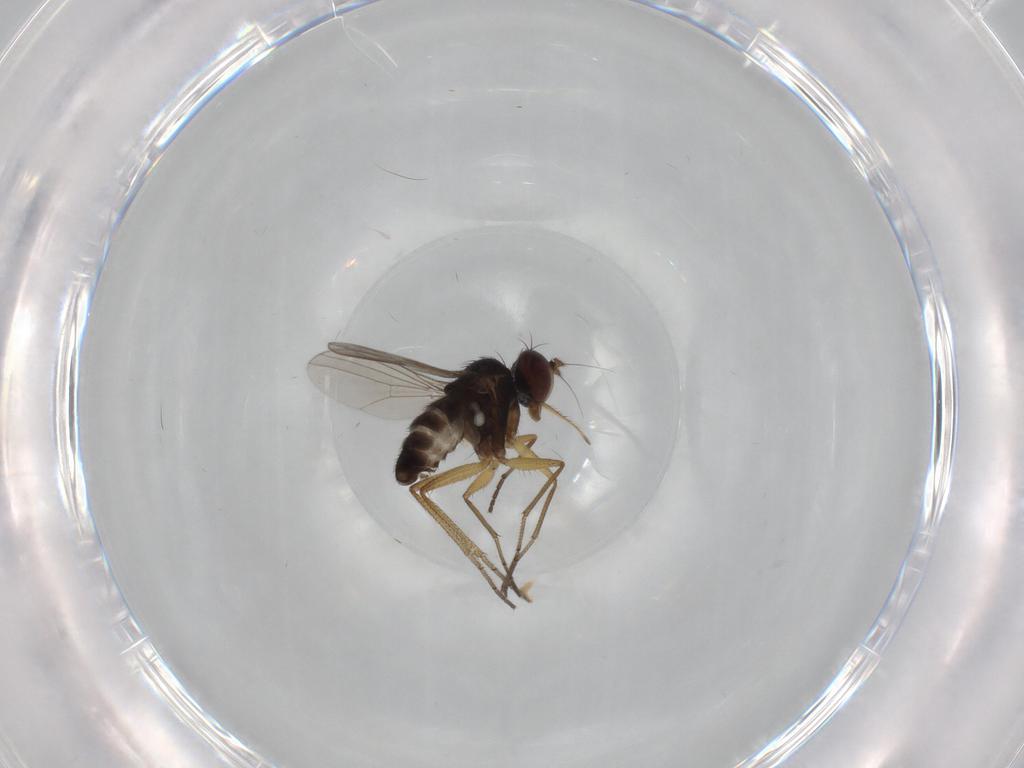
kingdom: Animalia
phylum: Arthropoda
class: Insecta
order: Diptera
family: Dolichopodidae
